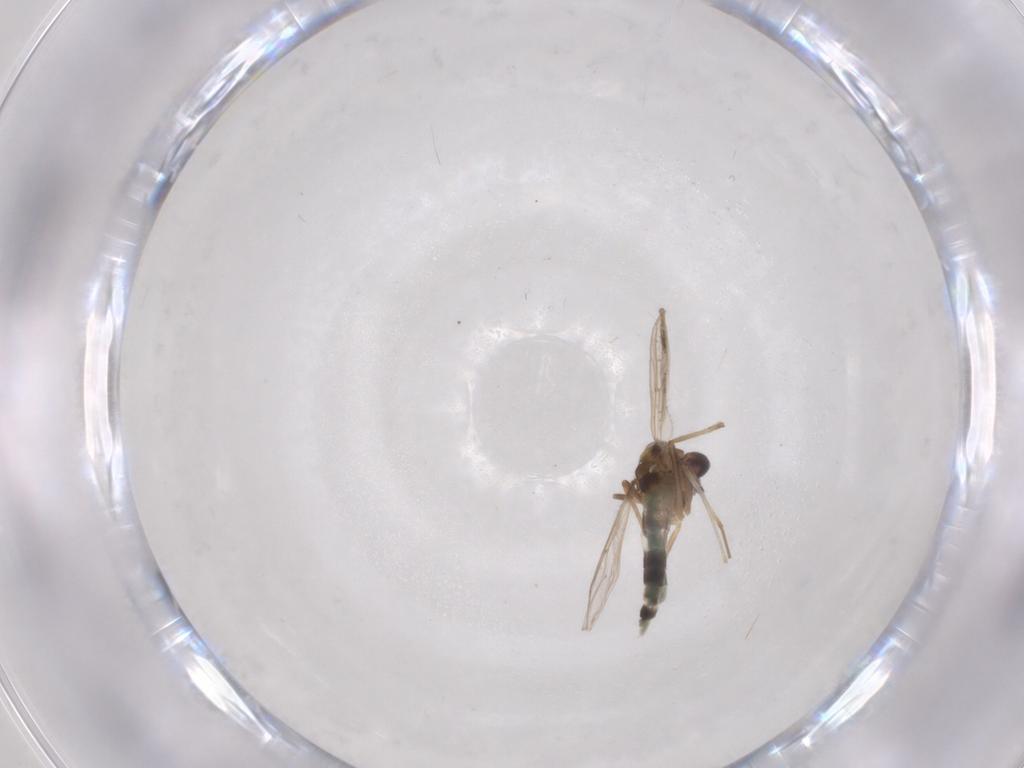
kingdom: Animalia
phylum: Arthropoda
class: Insecta
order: Diptera
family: Chironomidae
